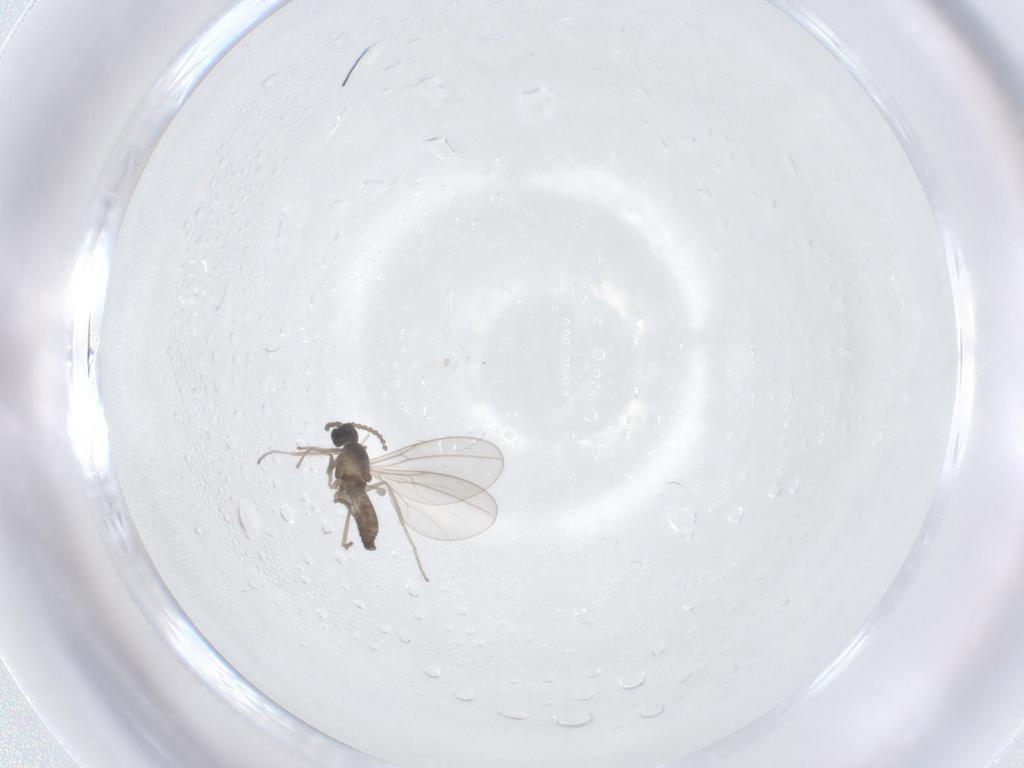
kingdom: Animalia
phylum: Arthropoda
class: Insecta
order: Diptera
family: Cecidomyiidae
